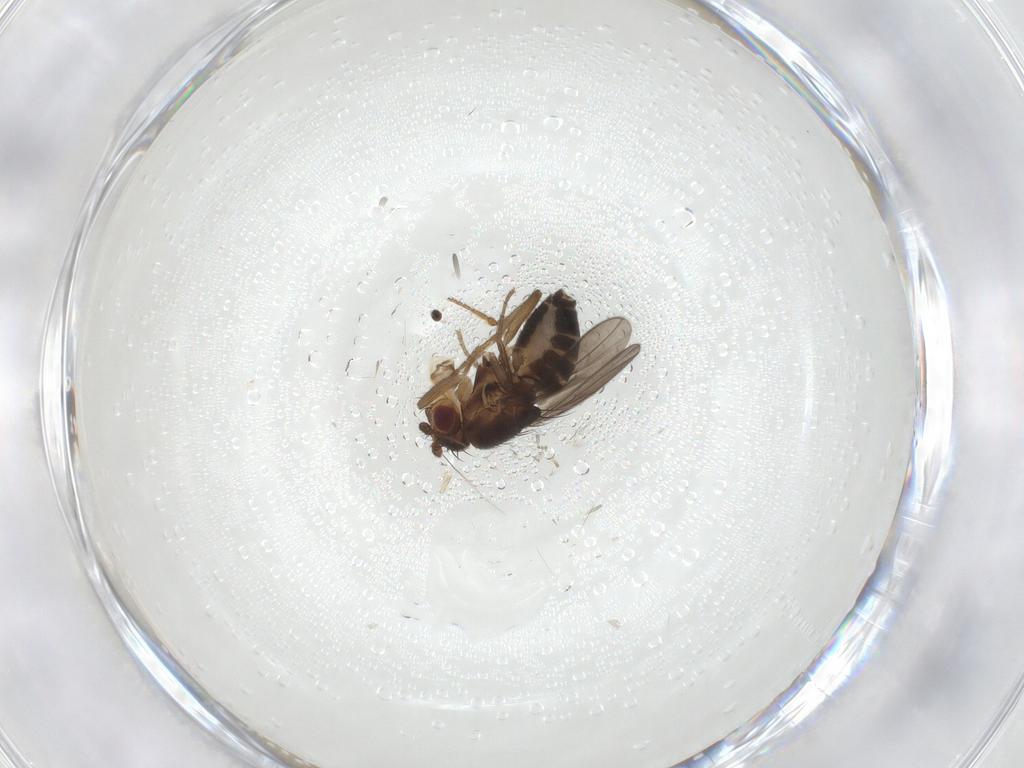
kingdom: Animalia
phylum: Arthropoda
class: Insecta
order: Diptera
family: Sphaeroceridae
